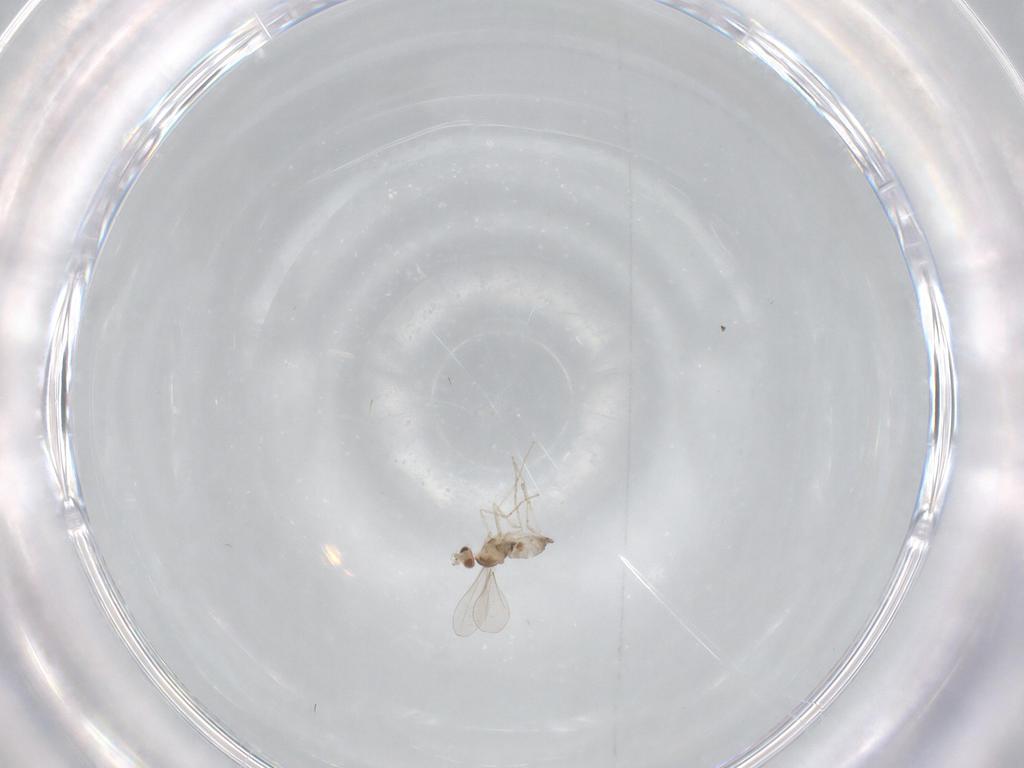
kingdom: Animalia
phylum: Arthropoda
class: Insecta
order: Diptera
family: Cecidomyiidae
